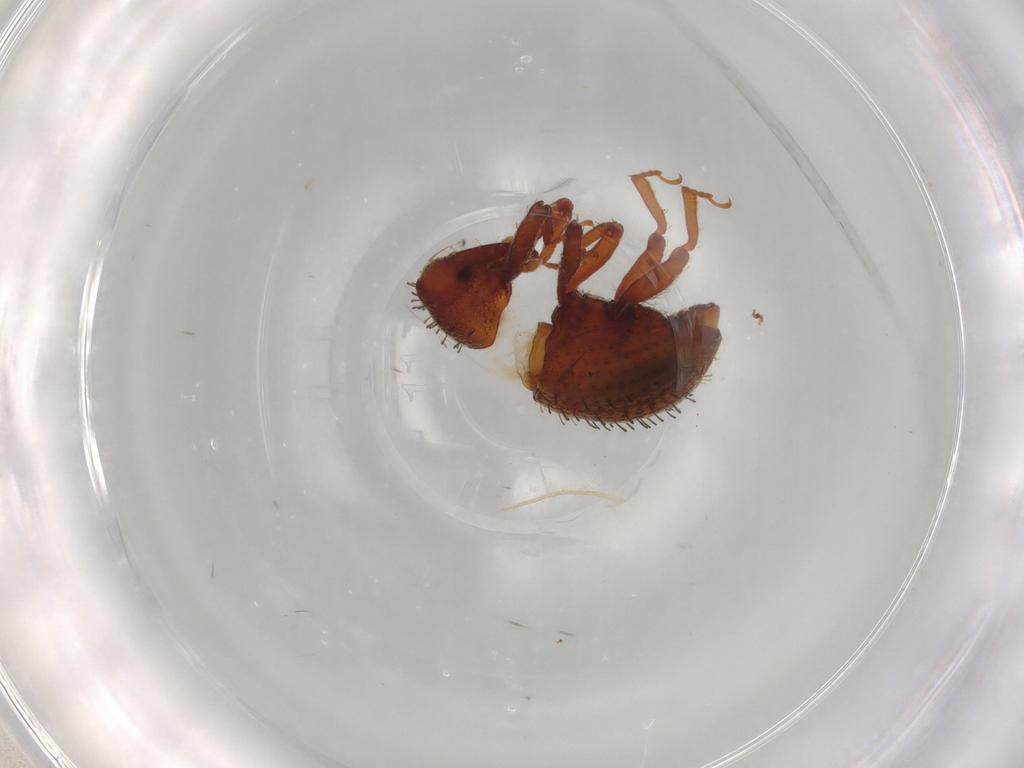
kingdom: Animalia
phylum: Arthropoda
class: Insecta
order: Coleoptera
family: Curculionidae
